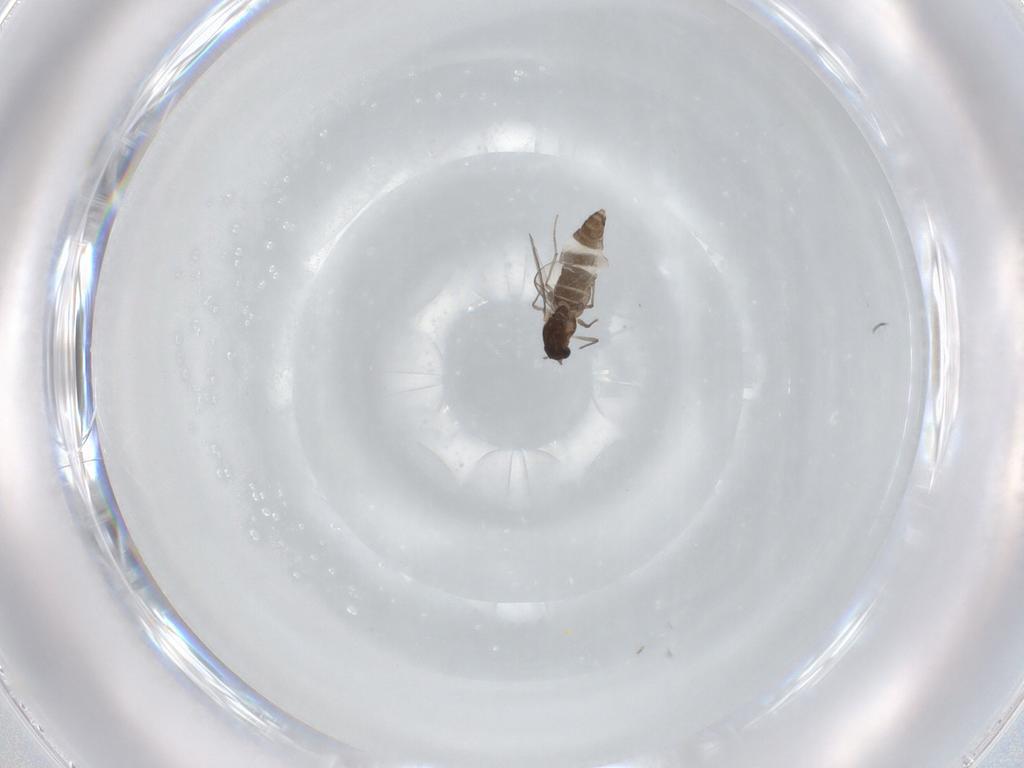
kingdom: Animalia
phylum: Arthropoda
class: Insecta
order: Diptera
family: Chironomidae
